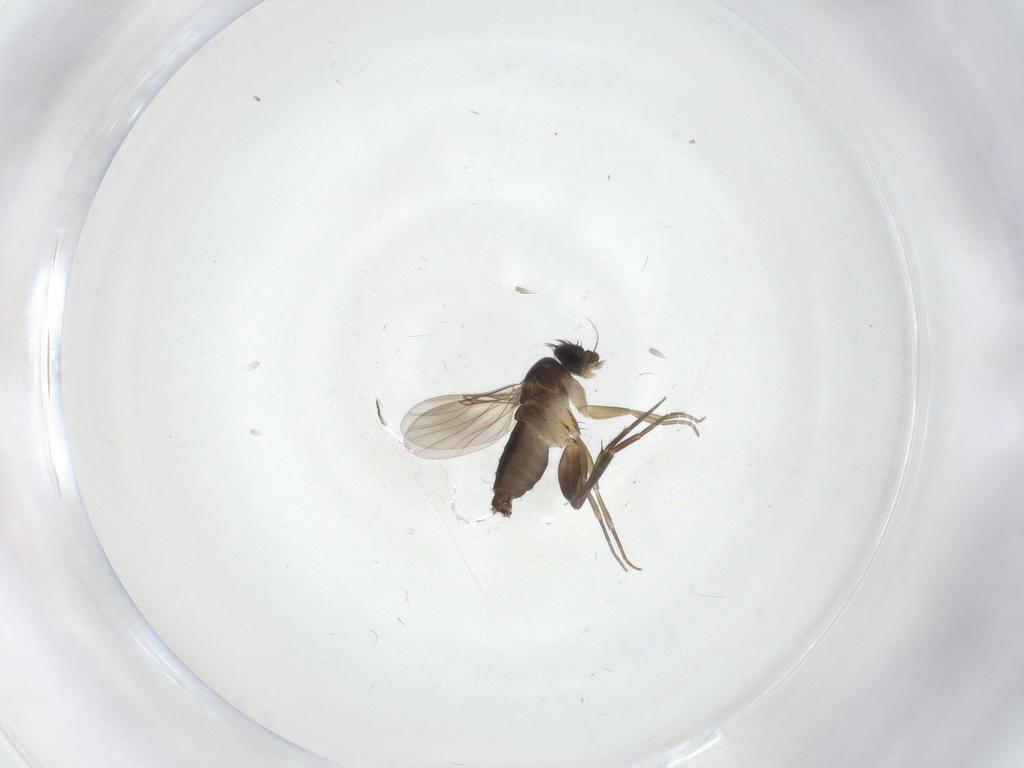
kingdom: Animalia
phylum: Arthropoda
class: Insecta
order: Diptera
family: Phoridae
